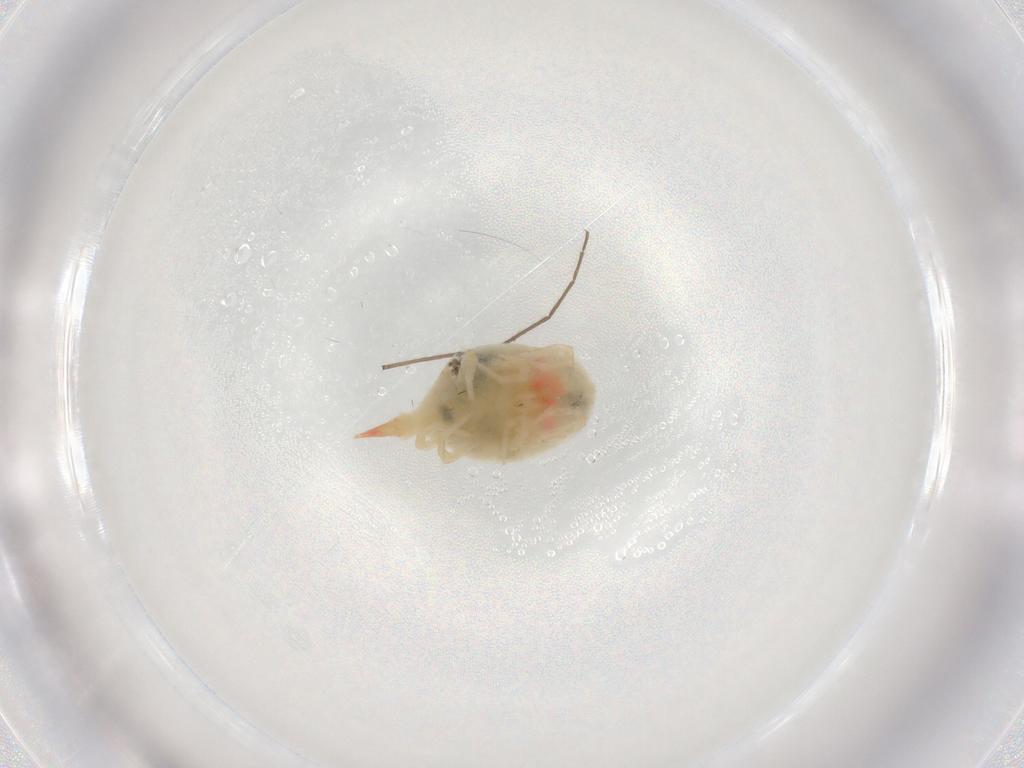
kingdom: Animalia
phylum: Arthropoda
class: Arachnida
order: Trombidiformes
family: Bdellidae
